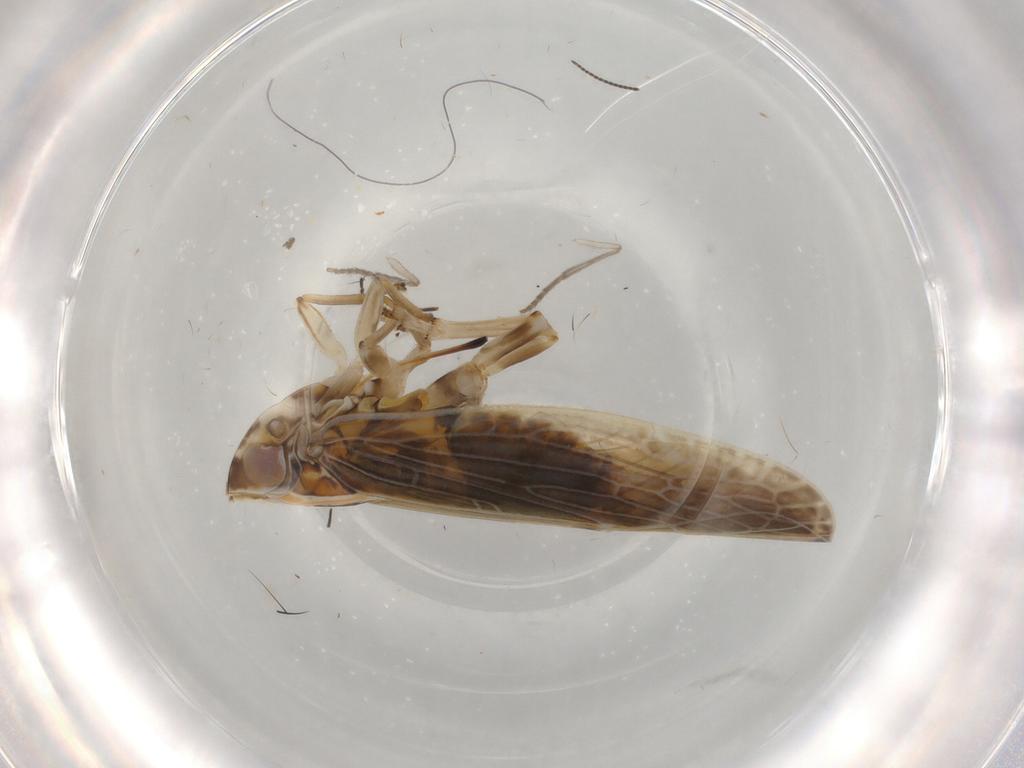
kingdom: Animalia
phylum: Arthropoda
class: Insecta
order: Hemiptera
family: Achilidae
